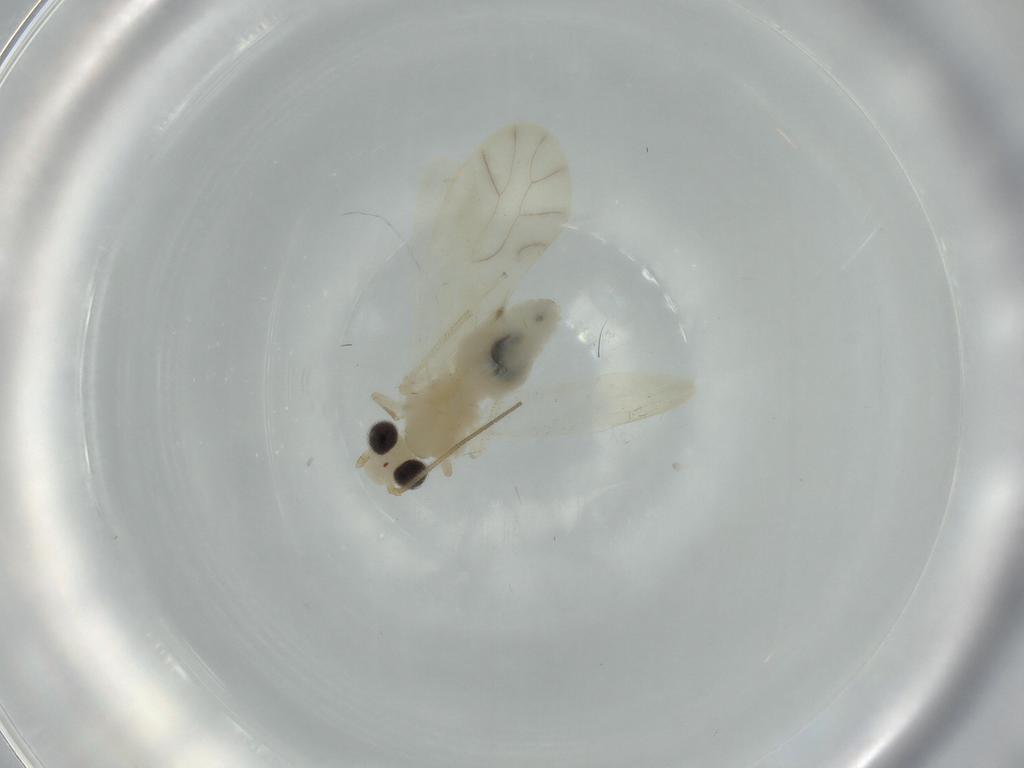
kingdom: Animalia
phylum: Arthropoda
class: Insecta
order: Psocodea
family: Caeciliusidae
